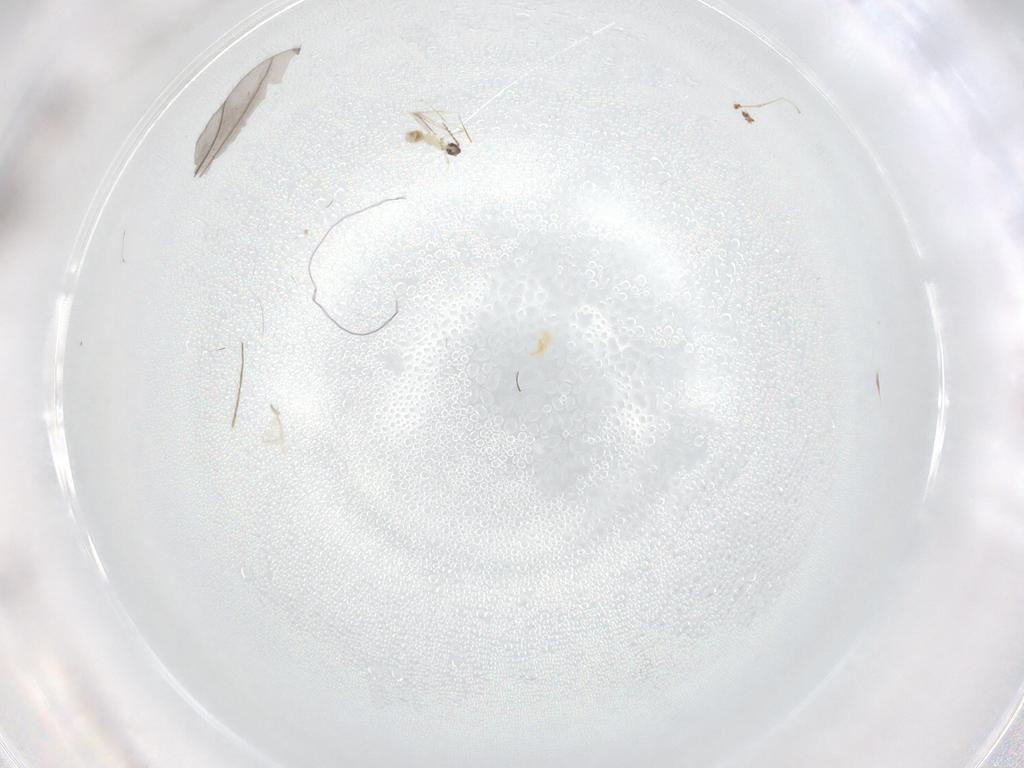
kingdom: Animalia
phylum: Arthropoda
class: Insecta
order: Diptera
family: Cecidomyiidae
